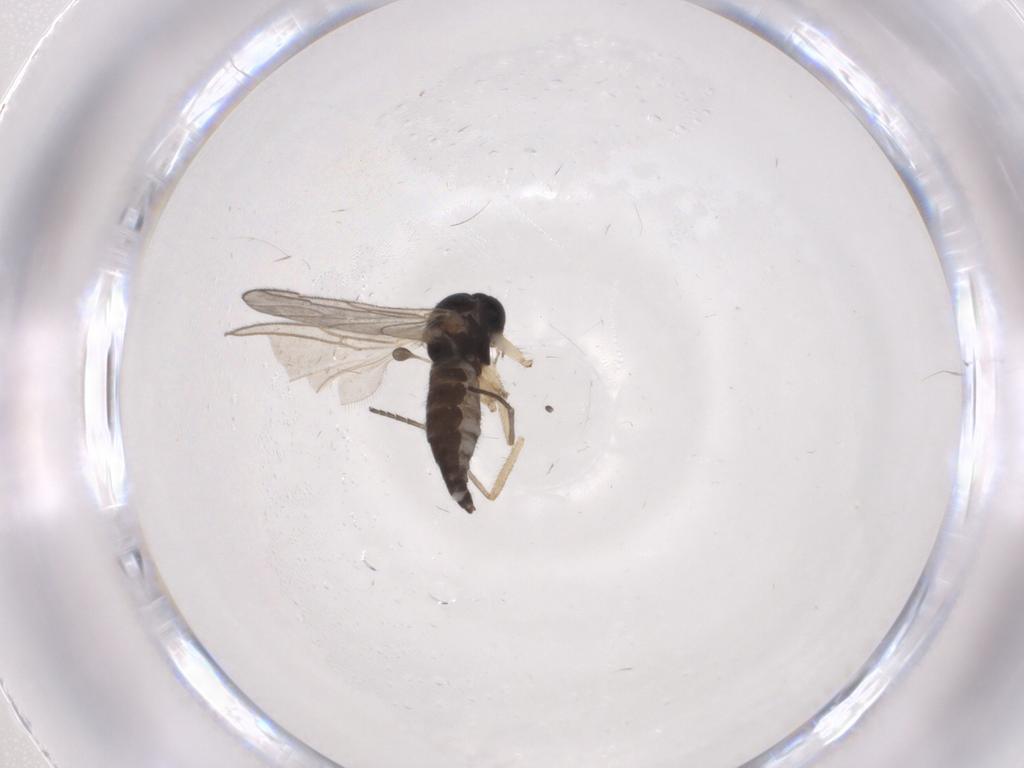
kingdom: Animalia
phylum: Arthropoda
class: Insecta
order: Diptera
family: Sciaridae
